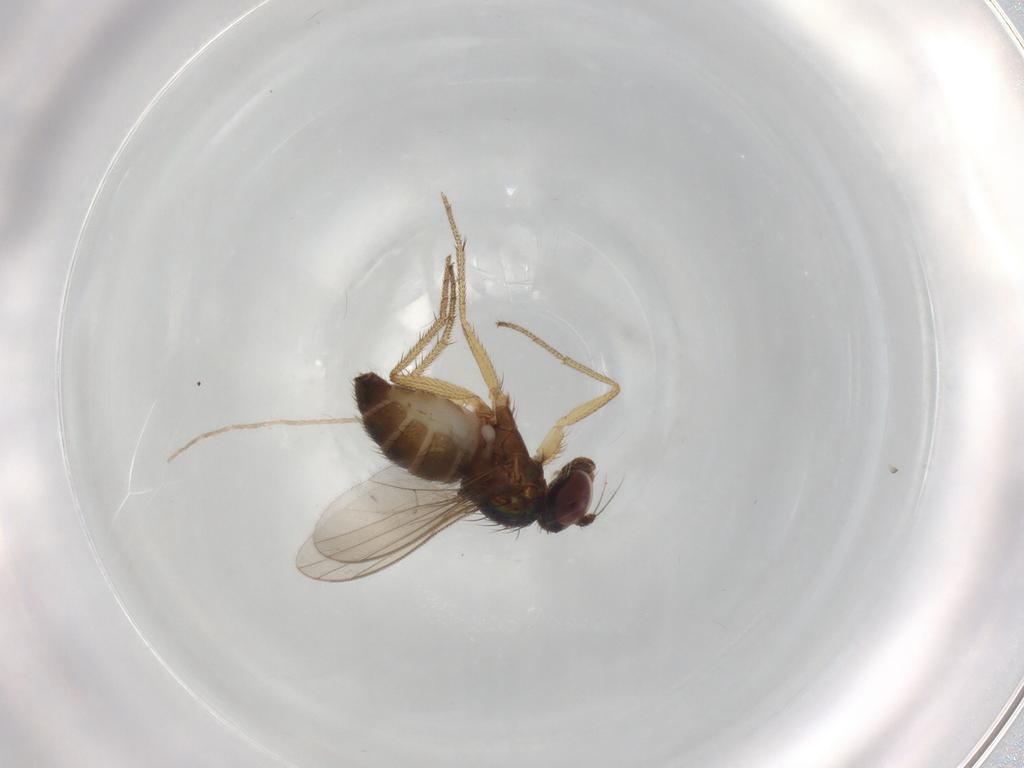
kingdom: Animalia
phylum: Arthropoda
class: Insecta
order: Diptera
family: Dolichopodidae
